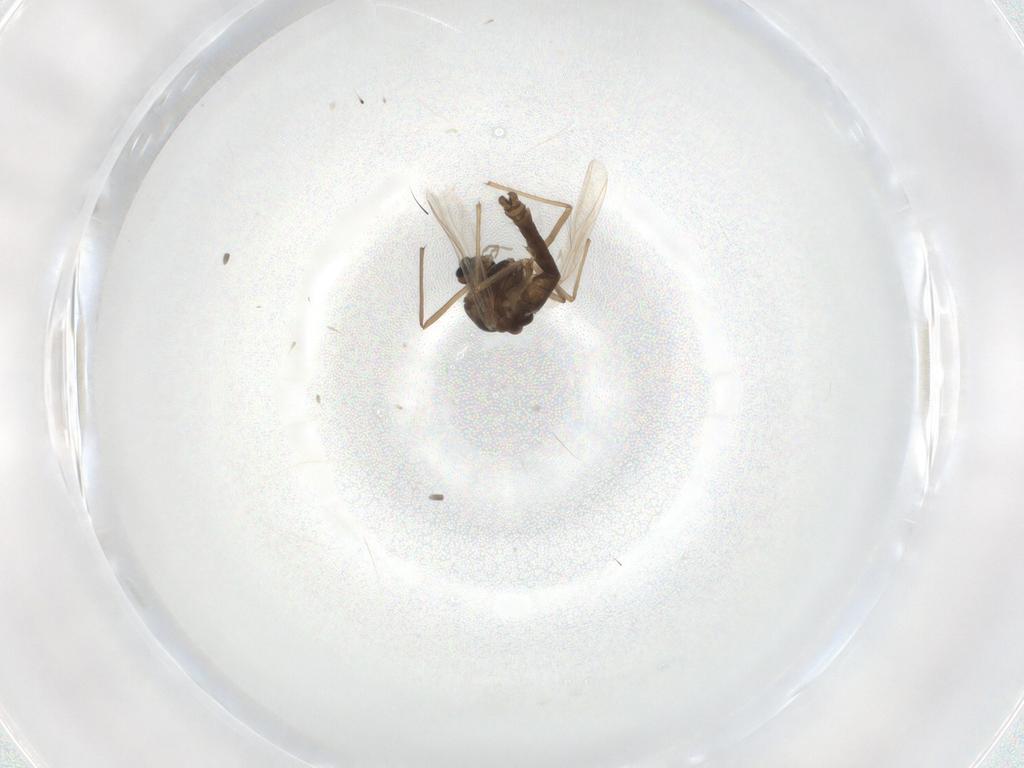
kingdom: Animalia
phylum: Arthropoda
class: Insecta
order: Diptera
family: Chironomidae
